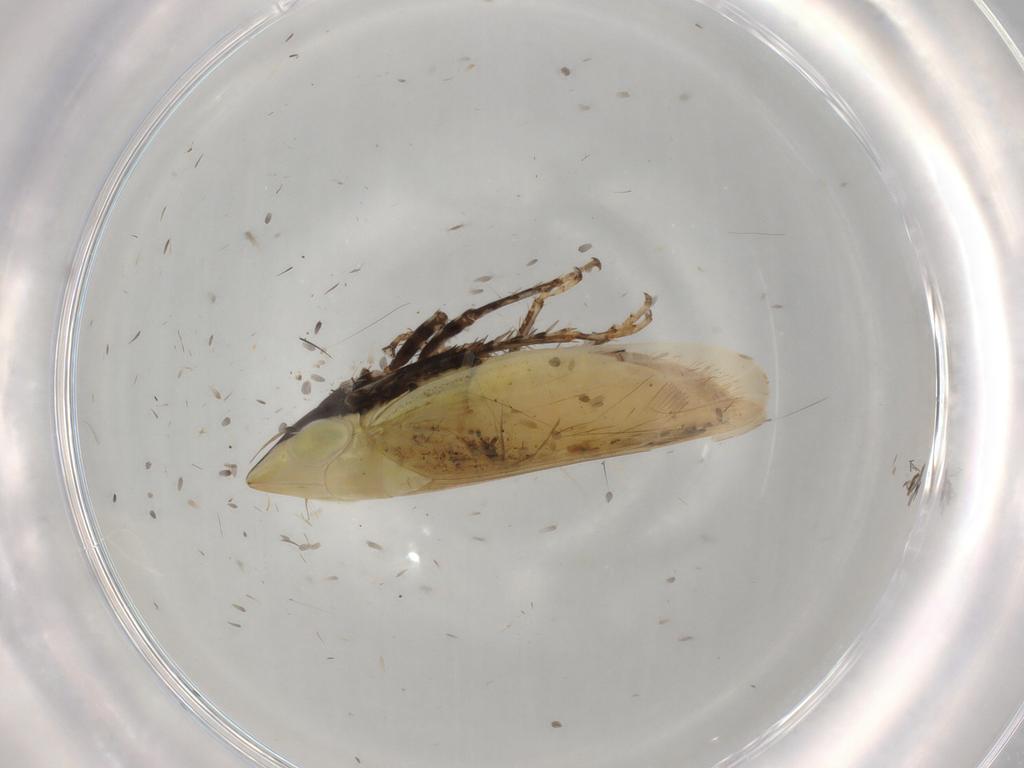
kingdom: Animalia
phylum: Arthropoda
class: Insecta
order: Hemiptera
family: Cicadellidae
